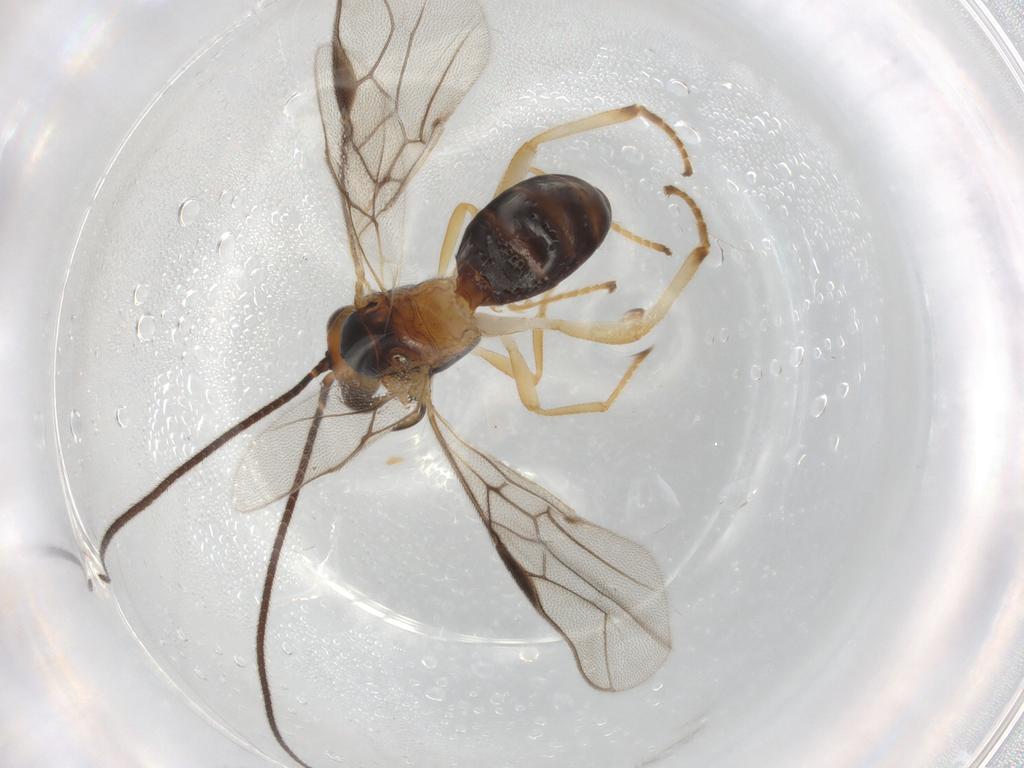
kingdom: Animalia
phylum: Arthropoda
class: Insecta
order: Hymenoptera
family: Braconidae
